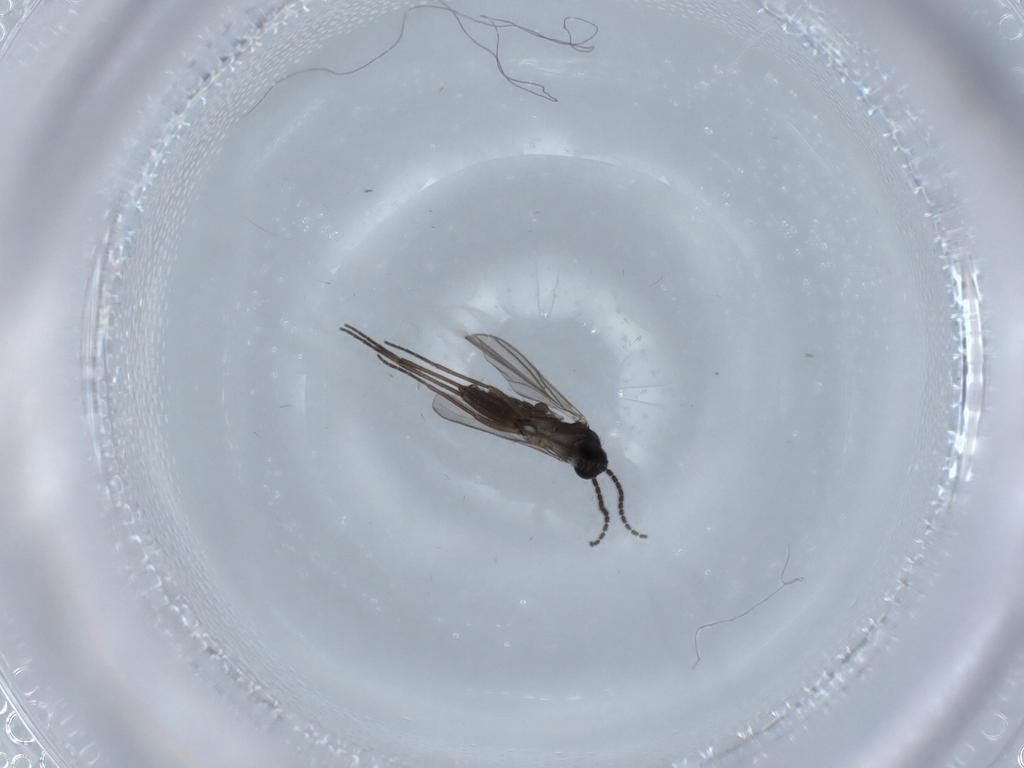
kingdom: Animalia
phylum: Arthropoda
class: Insecta
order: Diptera
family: Sciaridae
